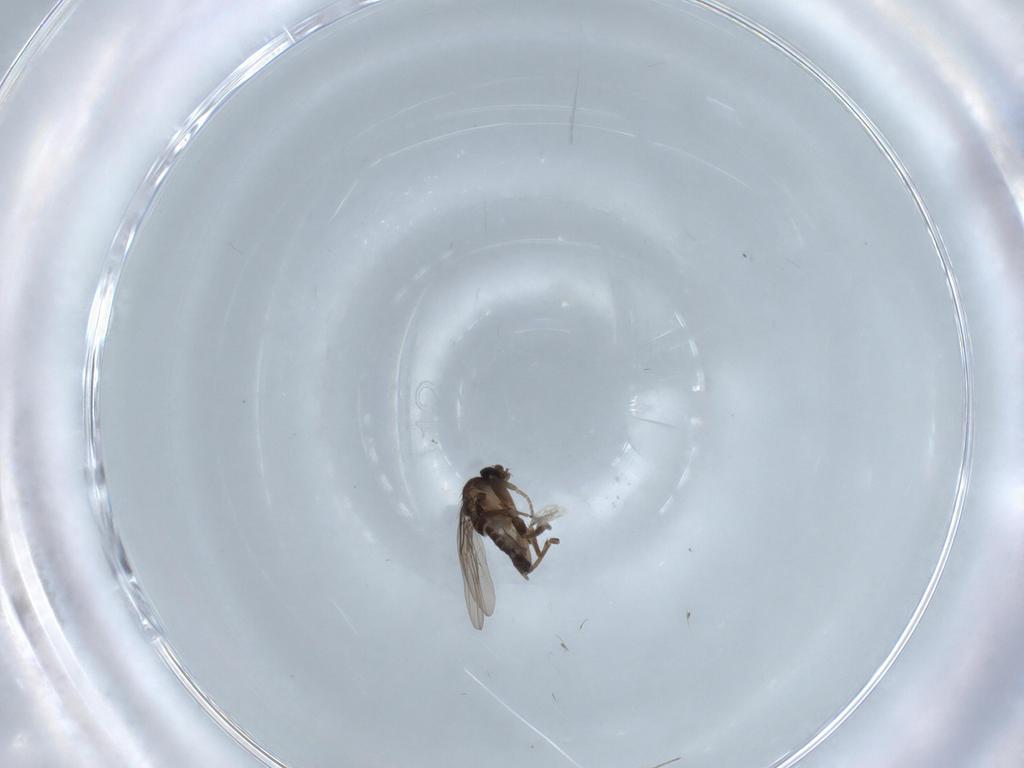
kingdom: Animalia
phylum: Arthropoda
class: Insecta
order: Diptera
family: Phoridae
